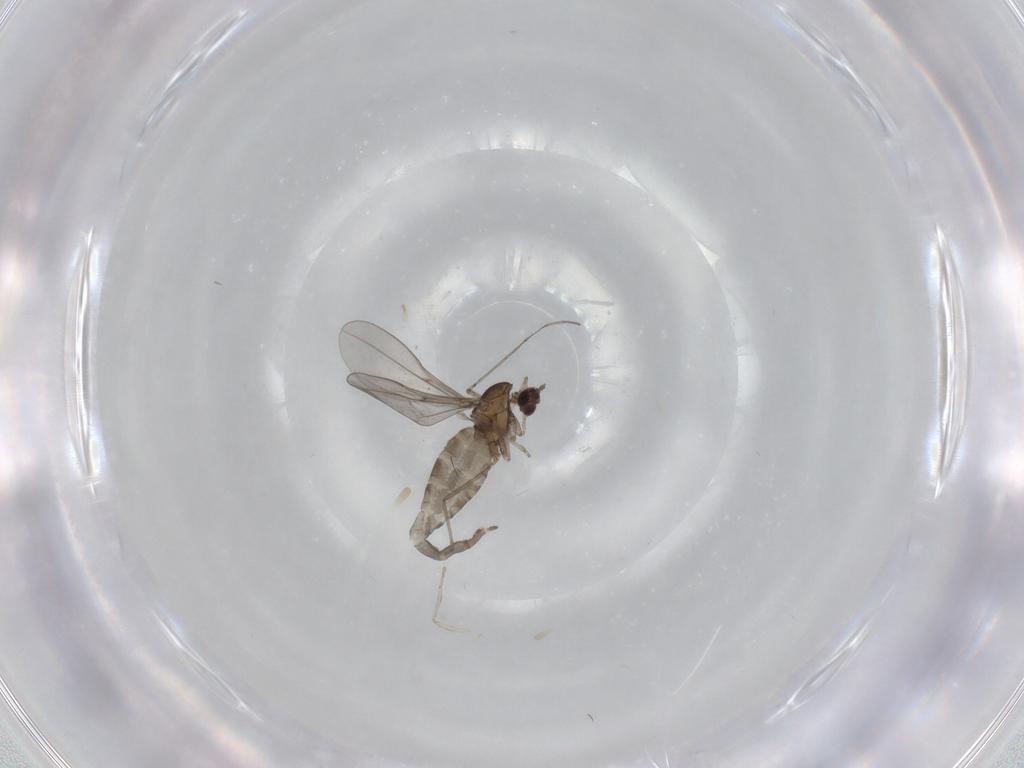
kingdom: Animalia
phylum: Arthropoda
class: Insecta
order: Diptera
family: Cecidomyiidae
